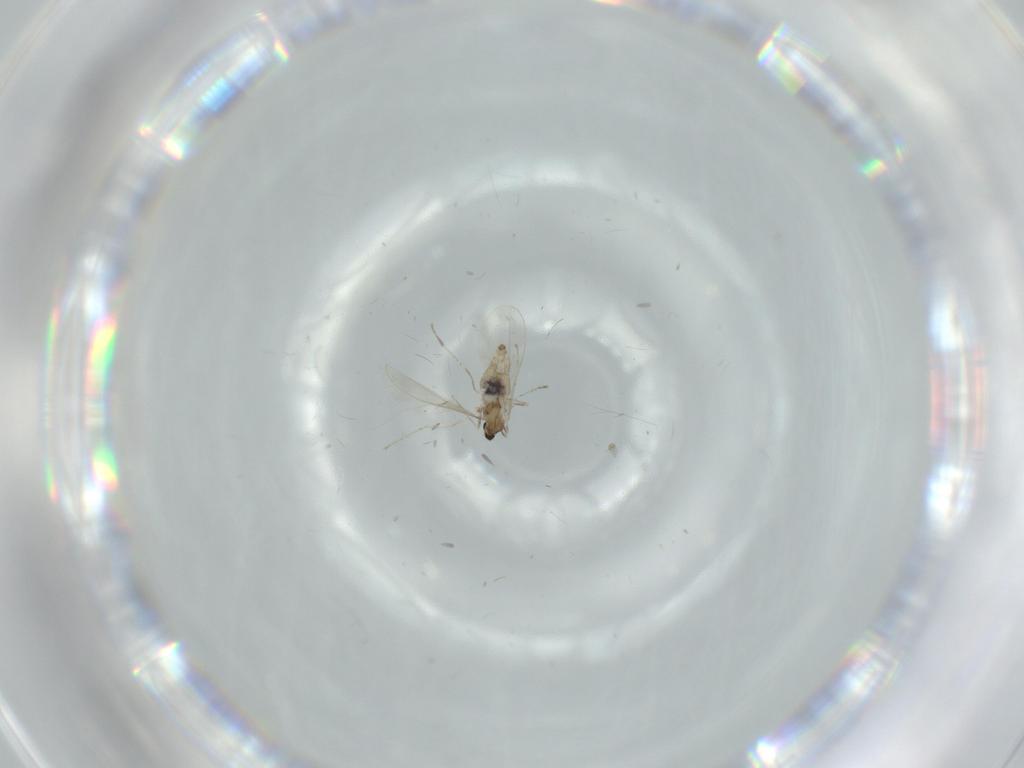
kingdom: Animalia
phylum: Arthropoda
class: Insecta
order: Diptera
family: Cecidomyiidae
